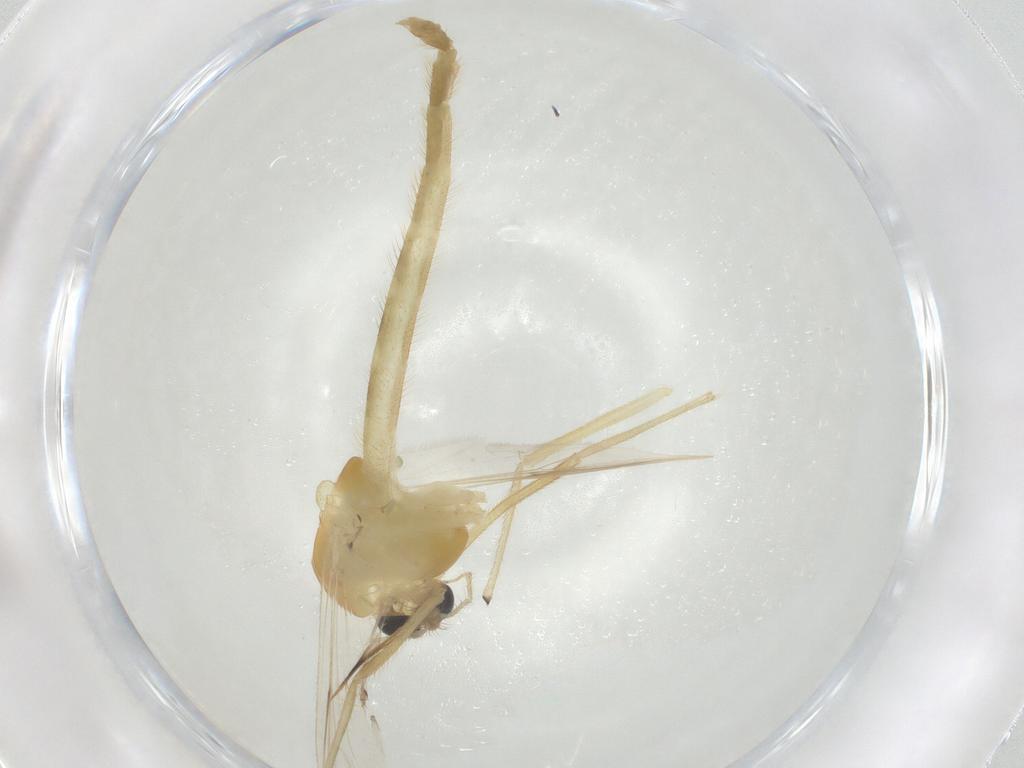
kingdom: Animalia
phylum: Arthropoda
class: Insecta
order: Diptera
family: Chironomidae
